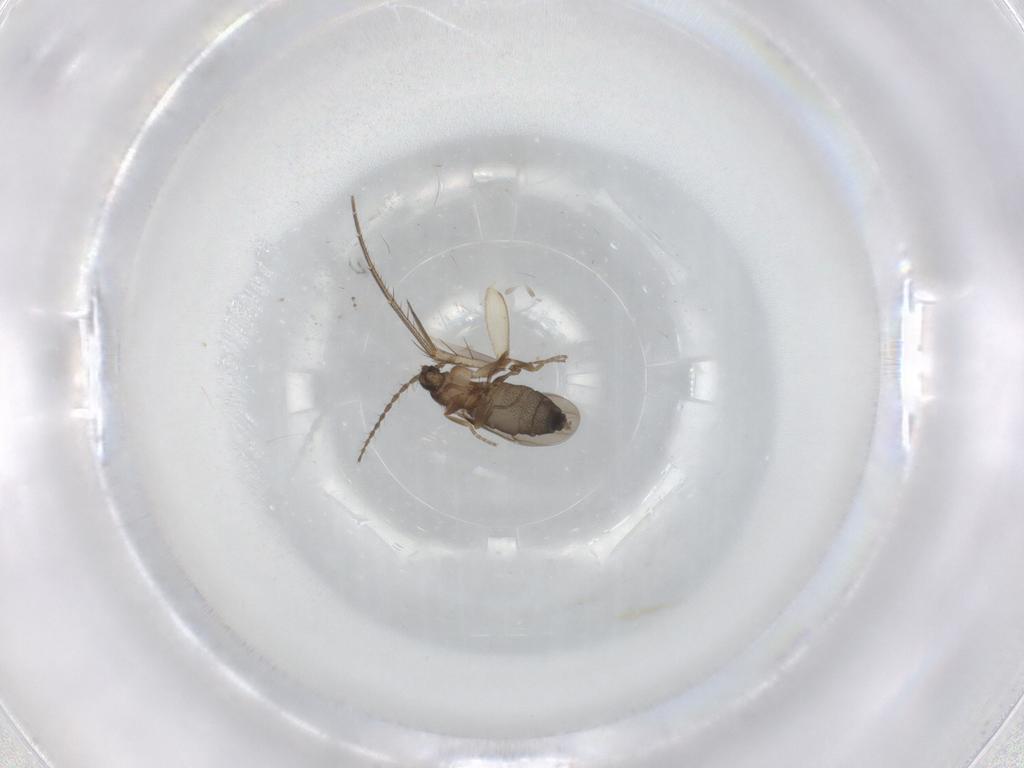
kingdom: Animalia
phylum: Arthropoda
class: Insecta
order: Diptera
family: Phoridae
